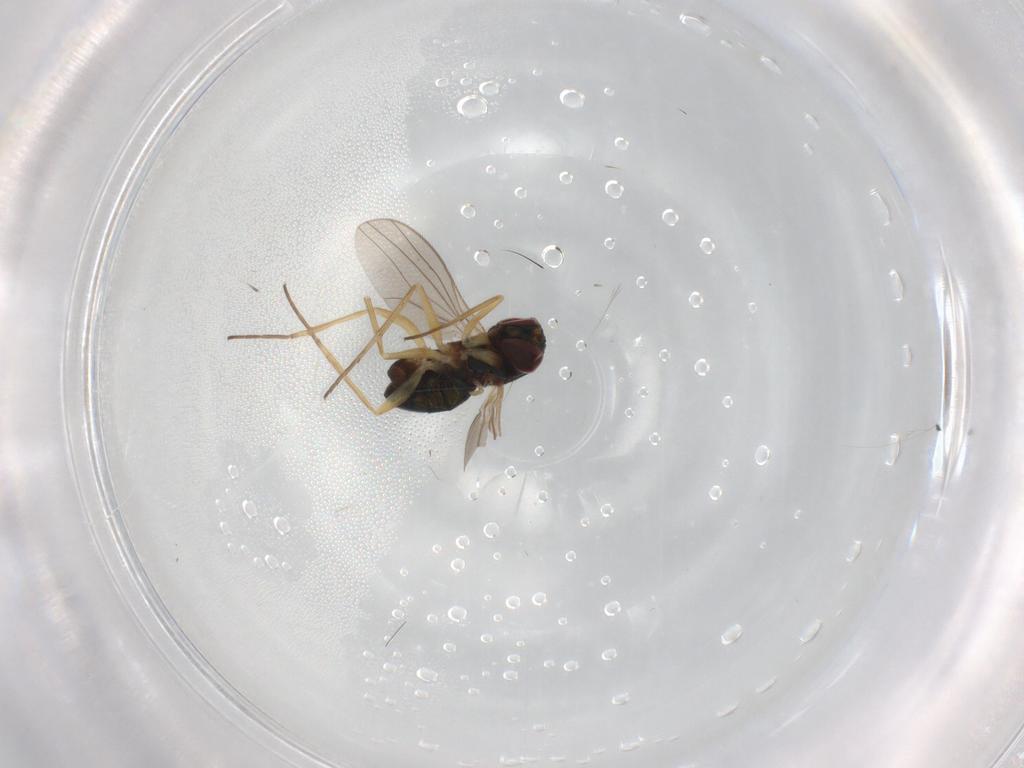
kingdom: Animalia
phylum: Arthropoda
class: Insecta
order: Diptera
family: Dolichopodidae
